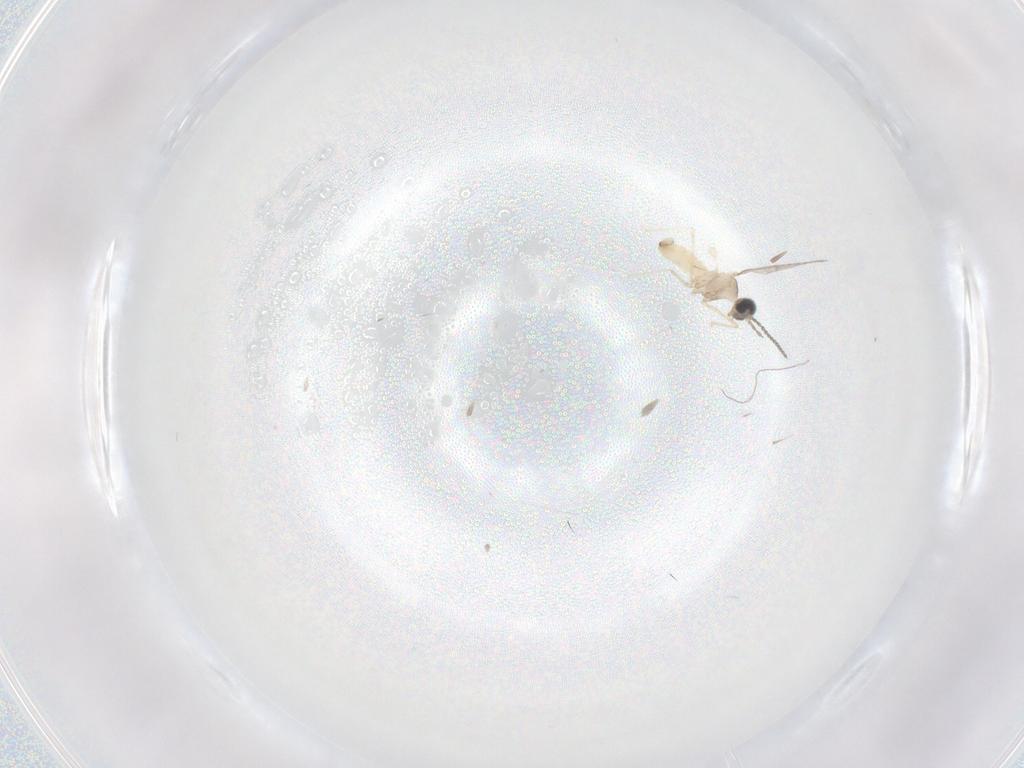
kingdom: Animalia
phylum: Arthropoda
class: Insecta
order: Diptera
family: Cecidomyiidae
